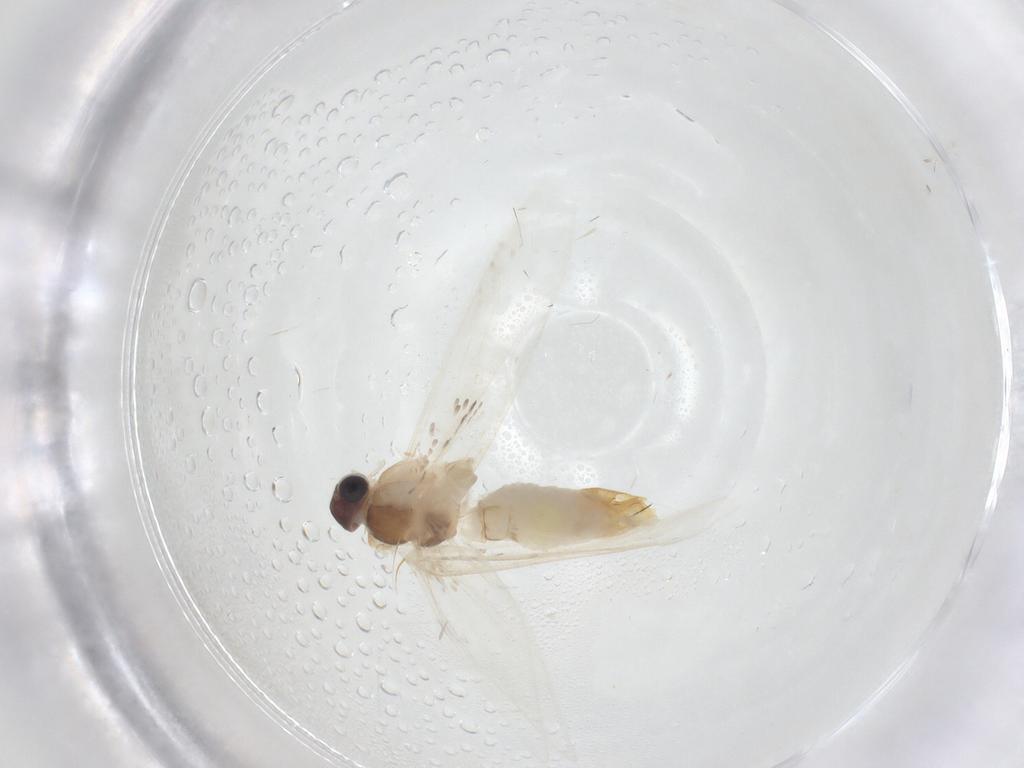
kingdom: Animalia
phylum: Arthropoda
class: Insecta
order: Lepidoptera
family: Tineidae
